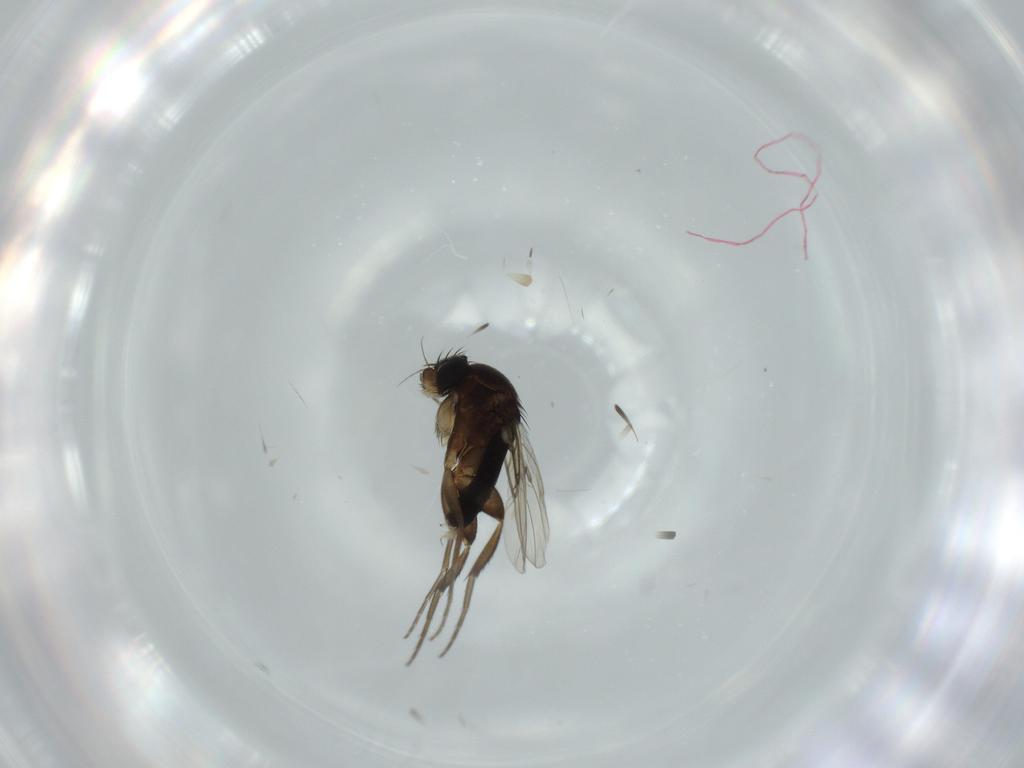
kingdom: Animalia
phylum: Arthropoda
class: Insecta
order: Diptera
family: Phoridae
